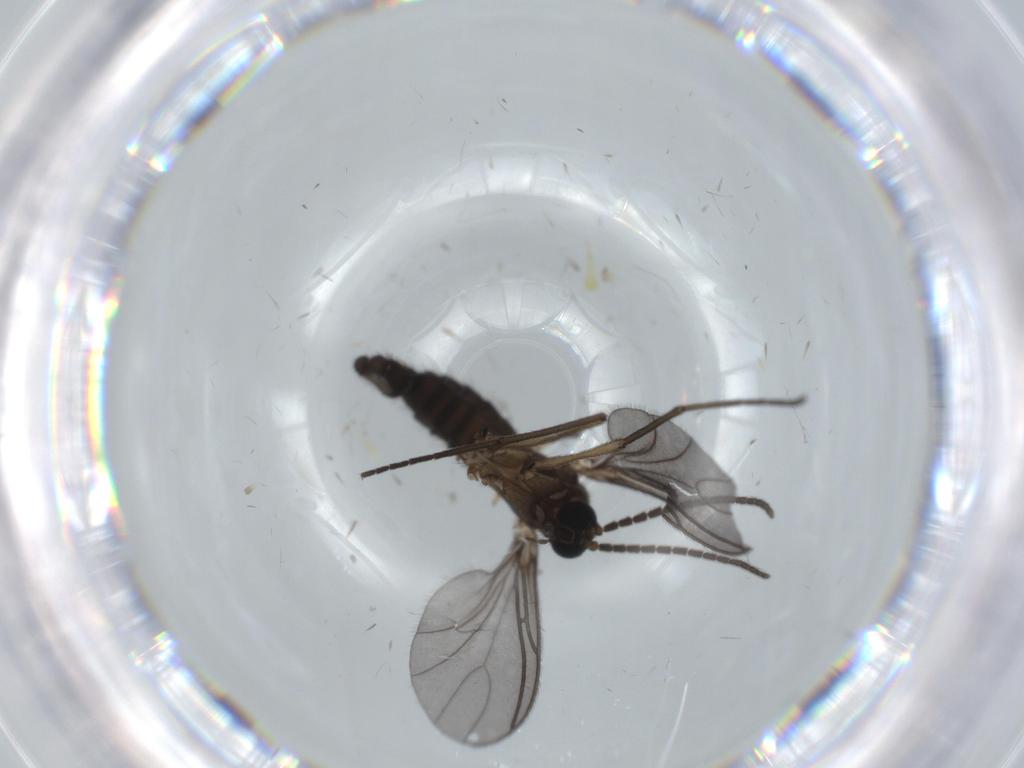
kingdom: Animalia
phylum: Arthropoda
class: Insecta
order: Diptera
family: Sciaridae
